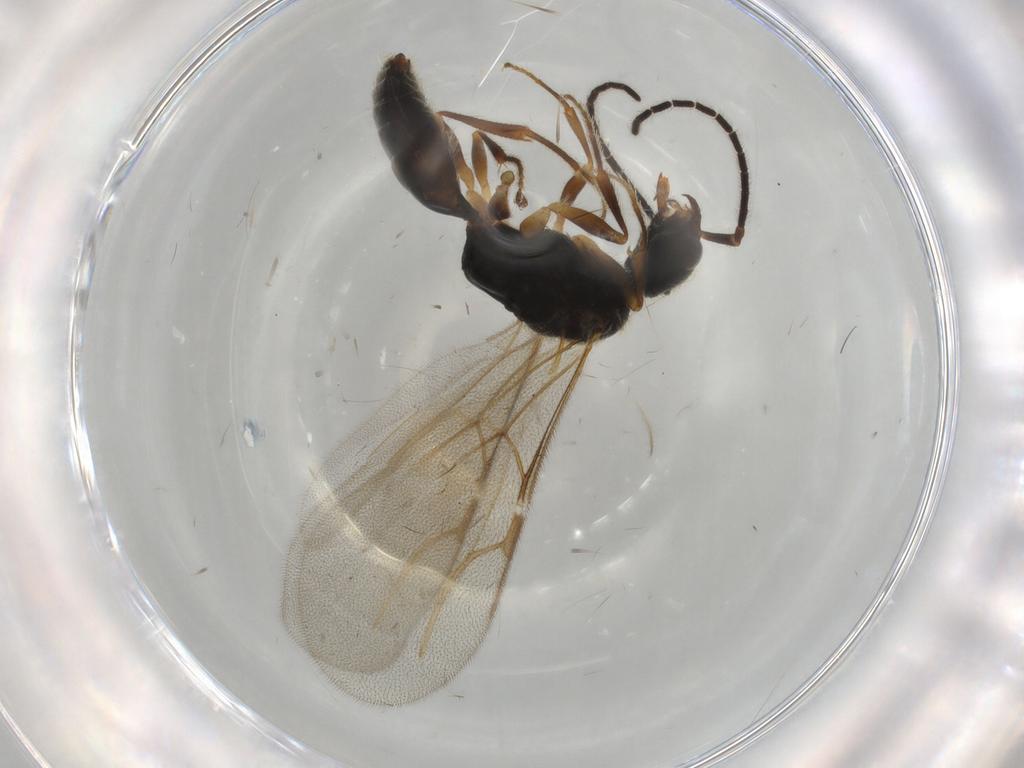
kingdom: Animalia
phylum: Arthropoda
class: Insecta
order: Hymenoptera
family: Bethylidae
